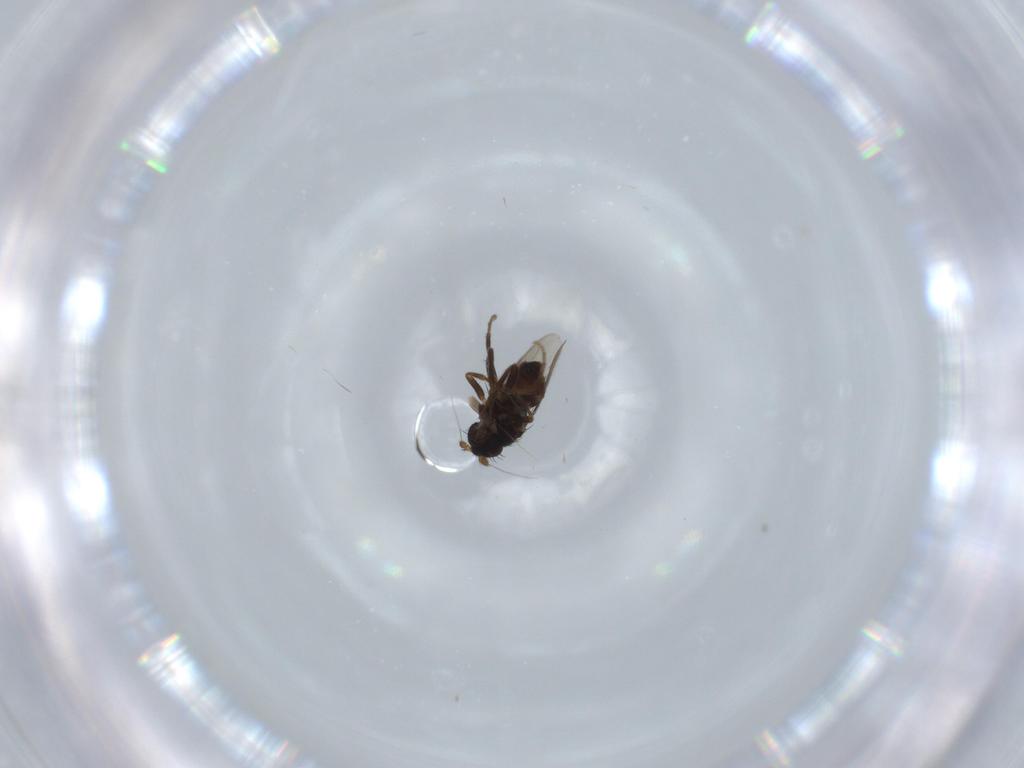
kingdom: Animalia
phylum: Arthropoda
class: Insecta
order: Diptera
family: Sphaeroceridae
